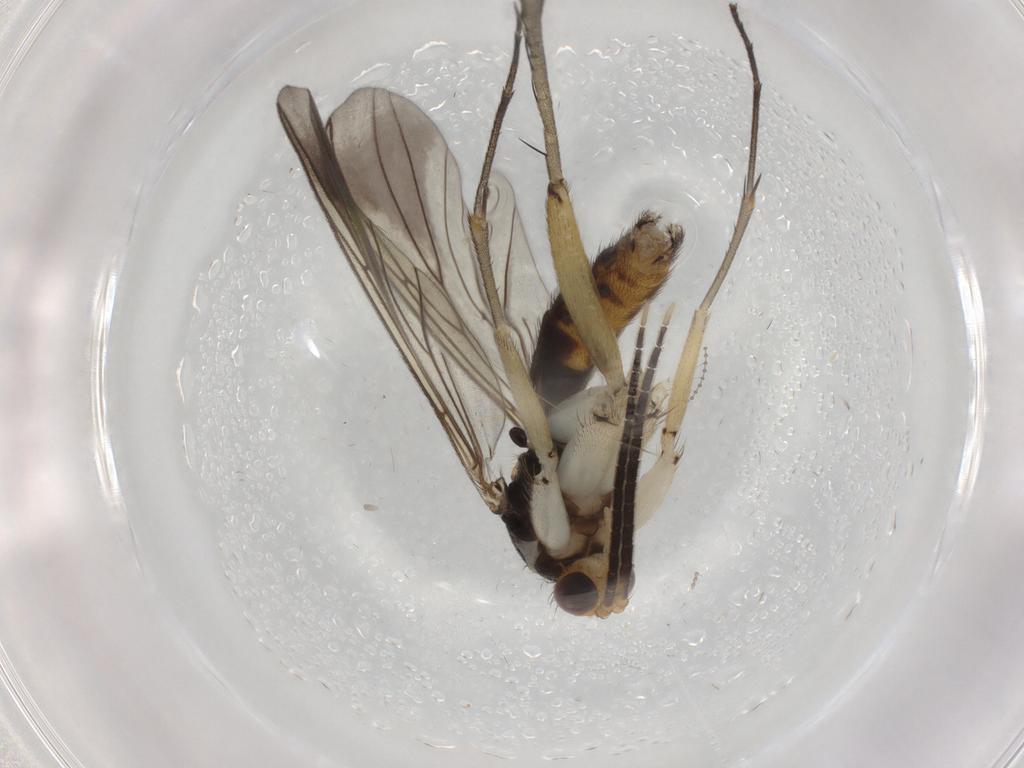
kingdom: Animalia
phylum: Arthropoda
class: Insecta
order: Diptera
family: Mycetophilidae
